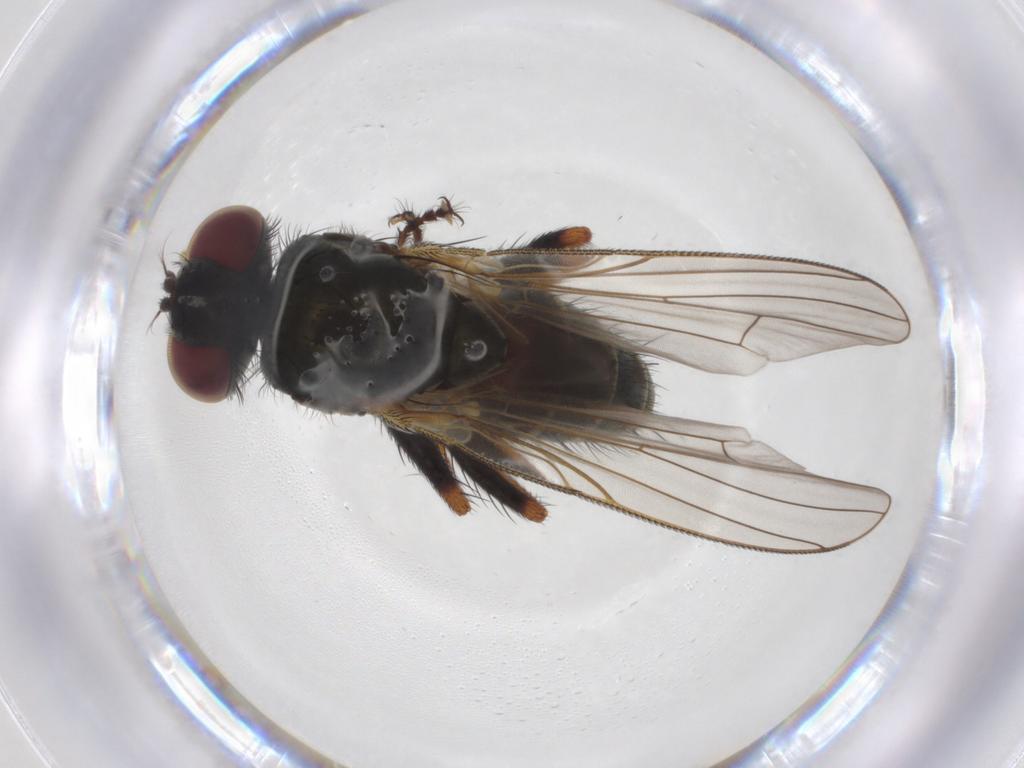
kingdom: Animalia
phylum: Arthropoda
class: Insecta
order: Diptera
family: Muscidae
